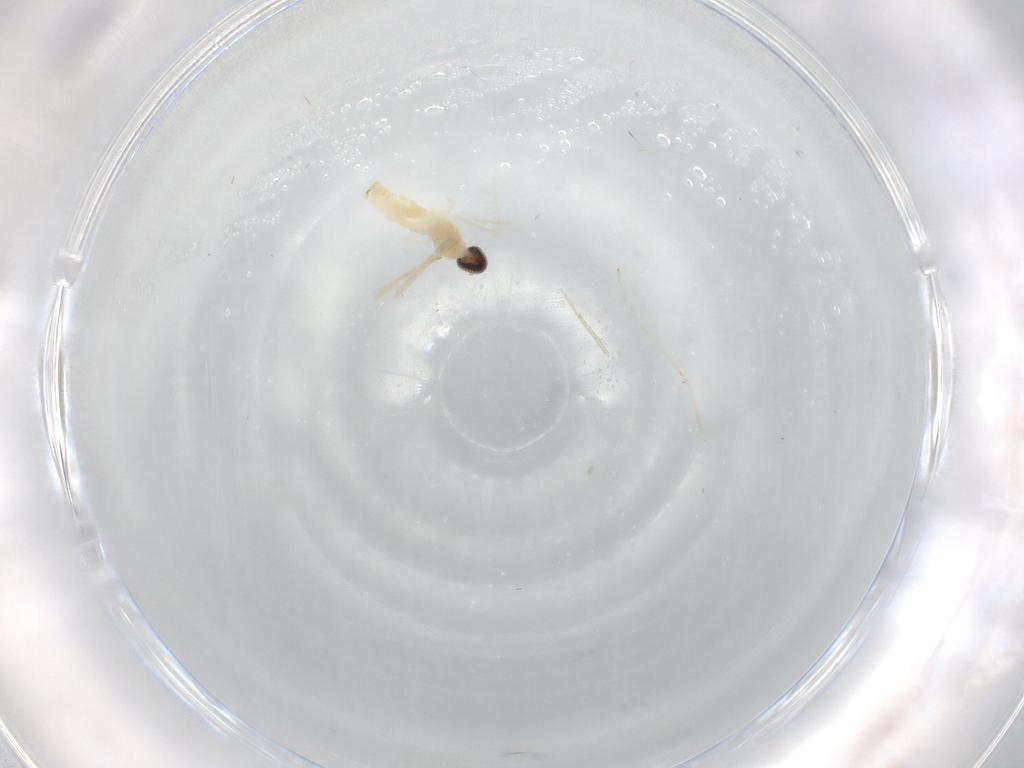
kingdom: Animalia
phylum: Arthropoda
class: Insecta
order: Diptera
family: Cecidomyiidae
